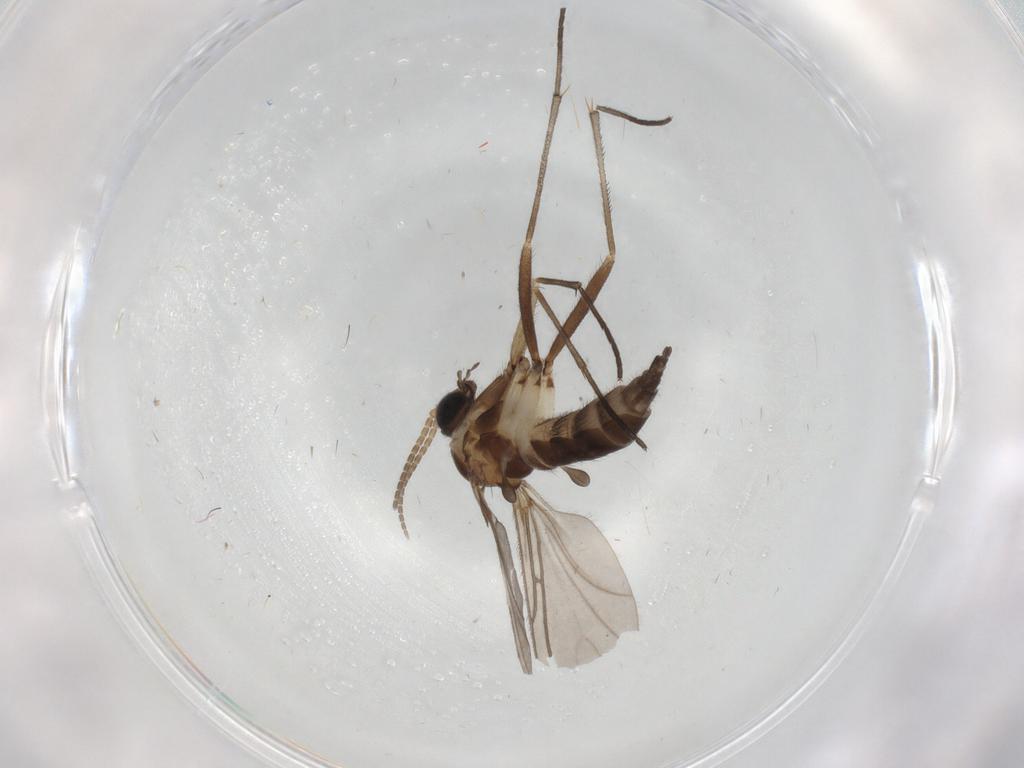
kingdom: Animalia
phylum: Arthropoda
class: Insecta
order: Diptera
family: Sciaridae
